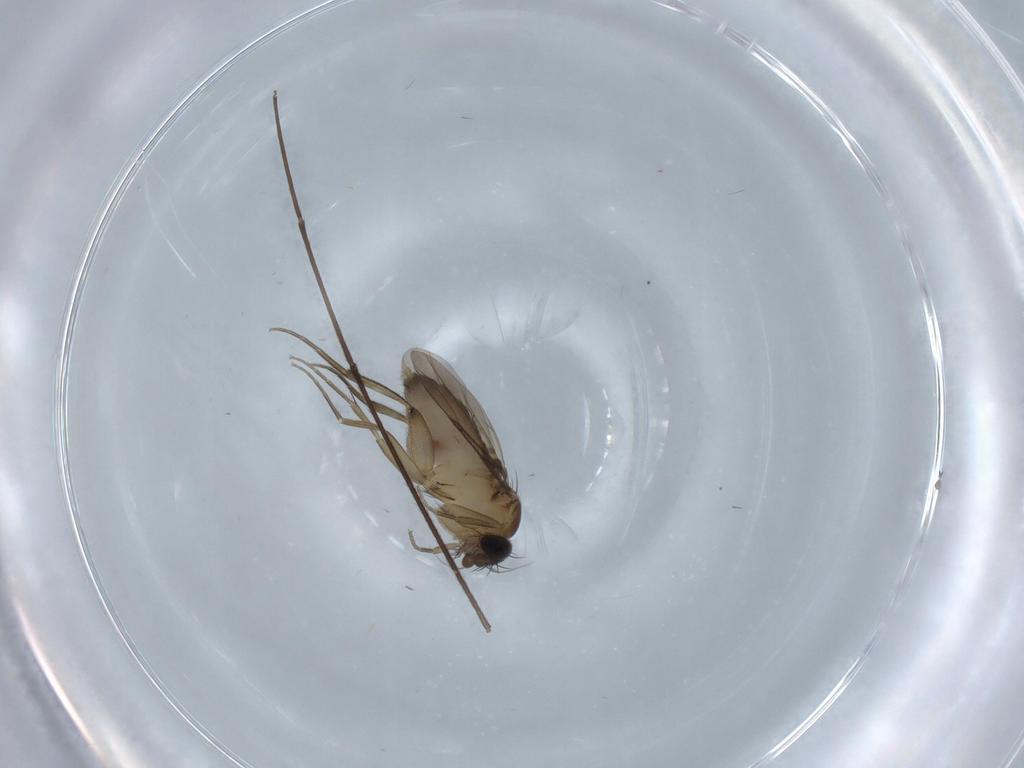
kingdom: Animalia
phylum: Arthropoda
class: Insecta
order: Diptera
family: Phoridae
